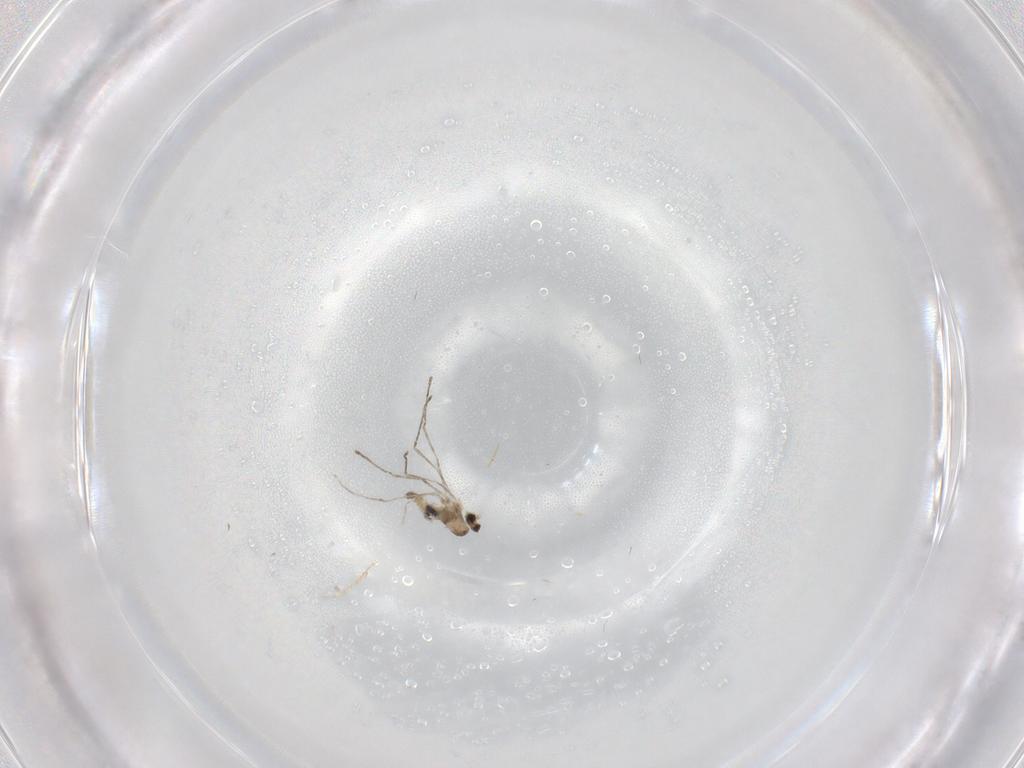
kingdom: Animalia
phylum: Arthropoda
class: Insecta
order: Diptera
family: Cecidomyiidae
